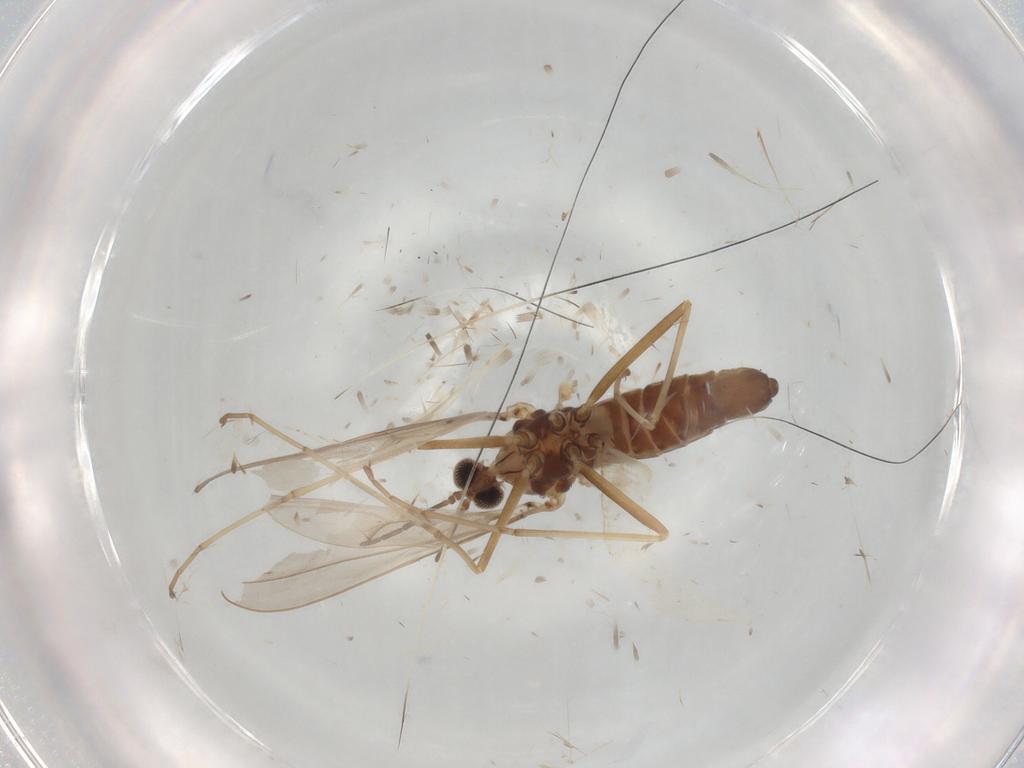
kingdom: Animalia
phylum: Arthropoda
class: Insecta
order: Diptera
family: Cecidomyiidae
